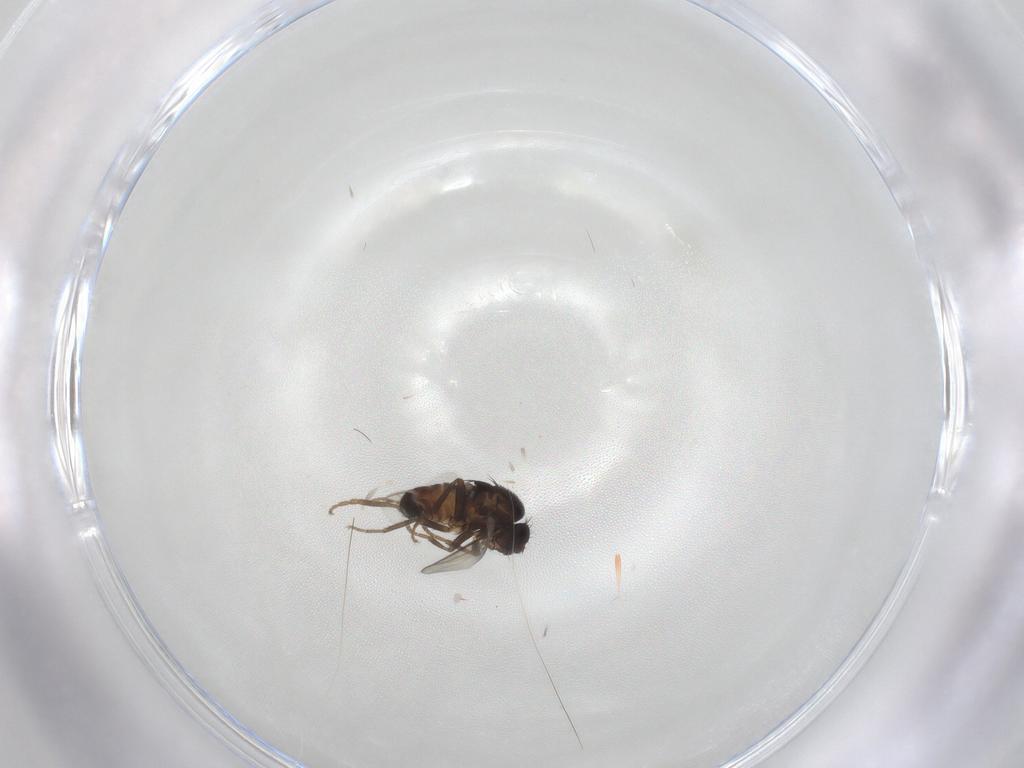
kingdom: Animalia
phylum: Arthropoda
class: Insecta
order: Diptera
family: Sphaeroceridae
